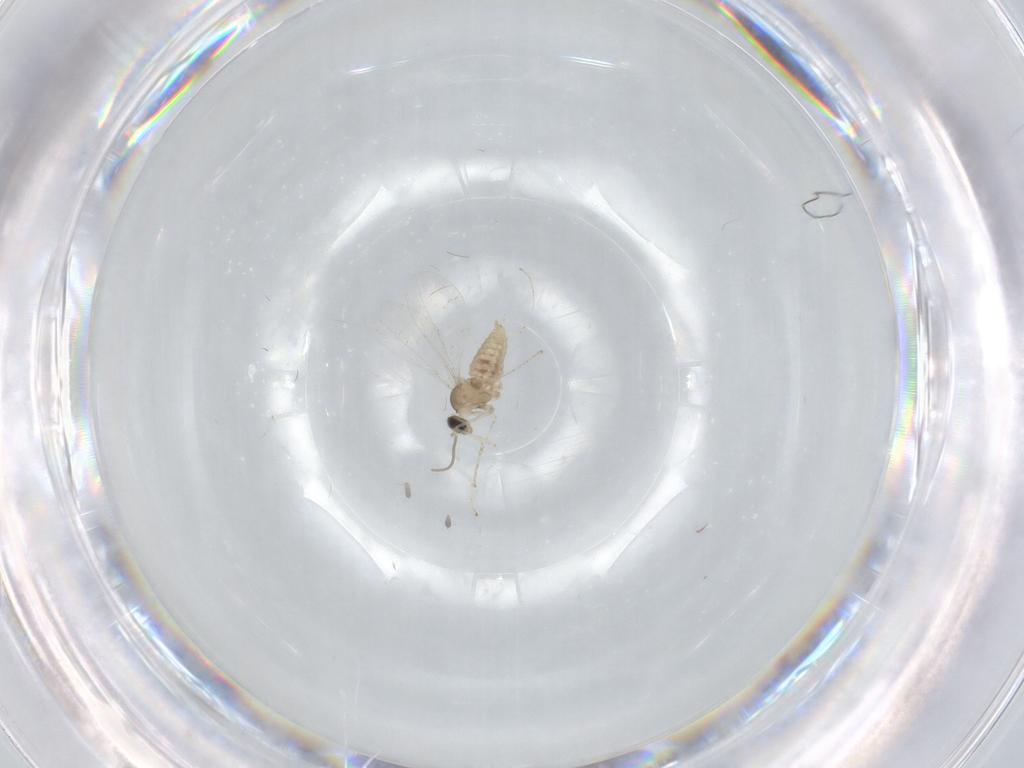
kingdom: Animalia
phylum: Arthropoda
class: Insecta
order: Diptera
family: Cecidomyiidae
